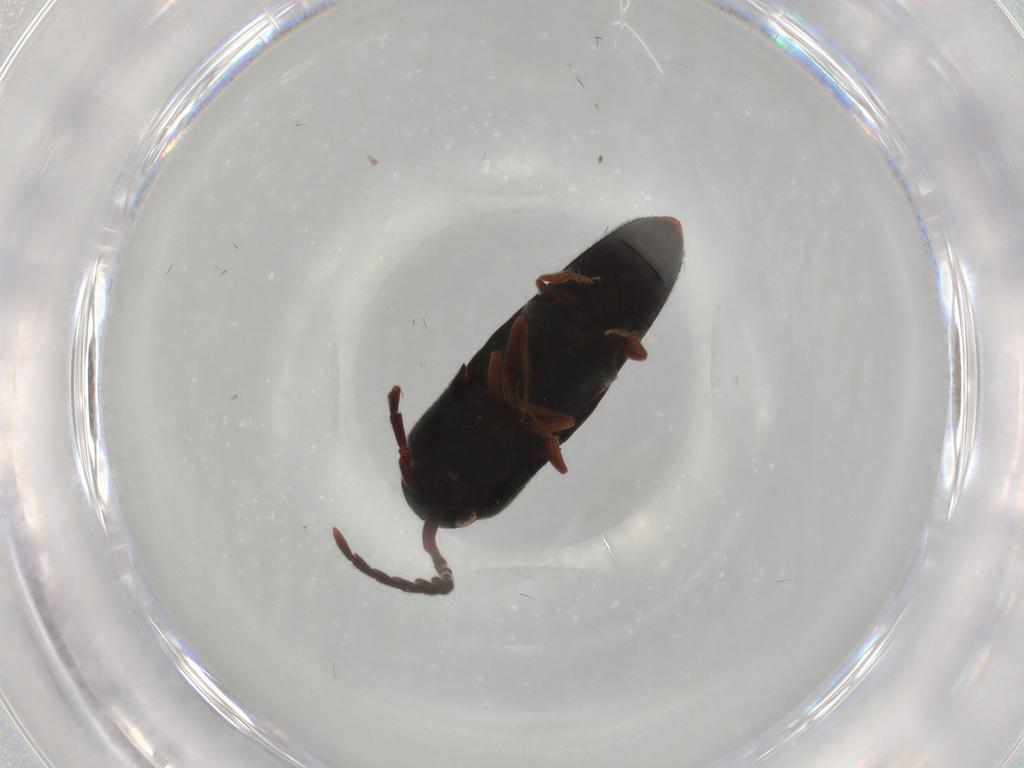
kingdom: Animalia
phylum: Arthropoda
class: Insecta
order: Coleoptera
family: Eucnemidae
